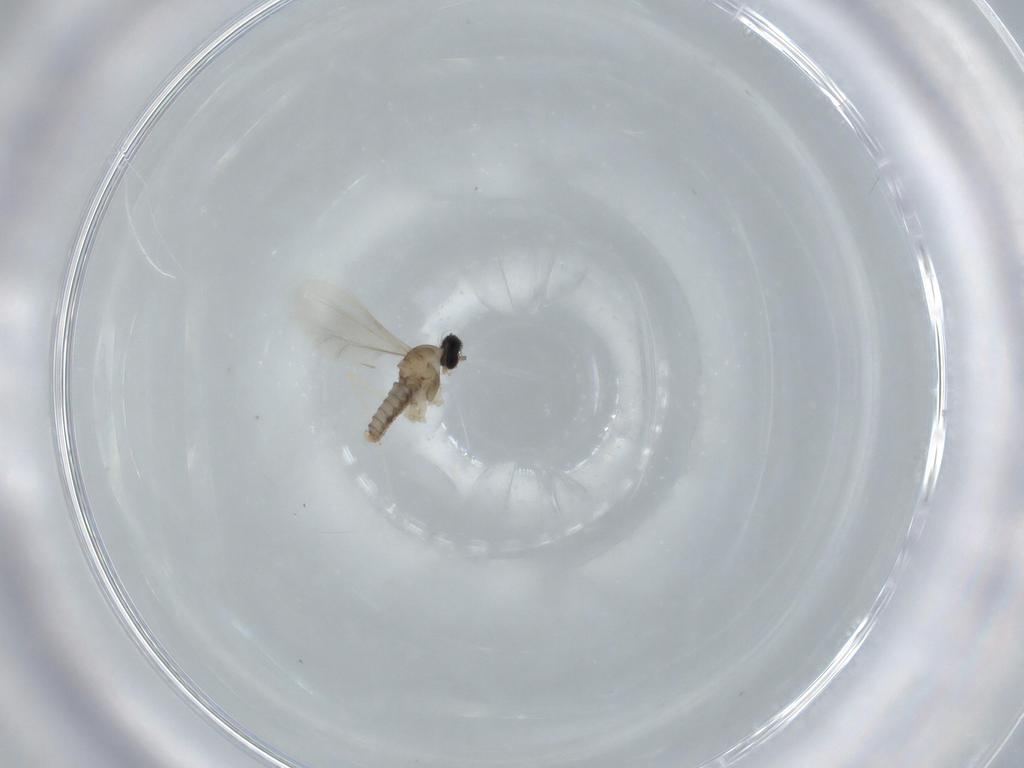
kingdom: Animalia
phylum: Arthropoda
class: Insecta
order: Diptera
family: Cecidomyiidae
